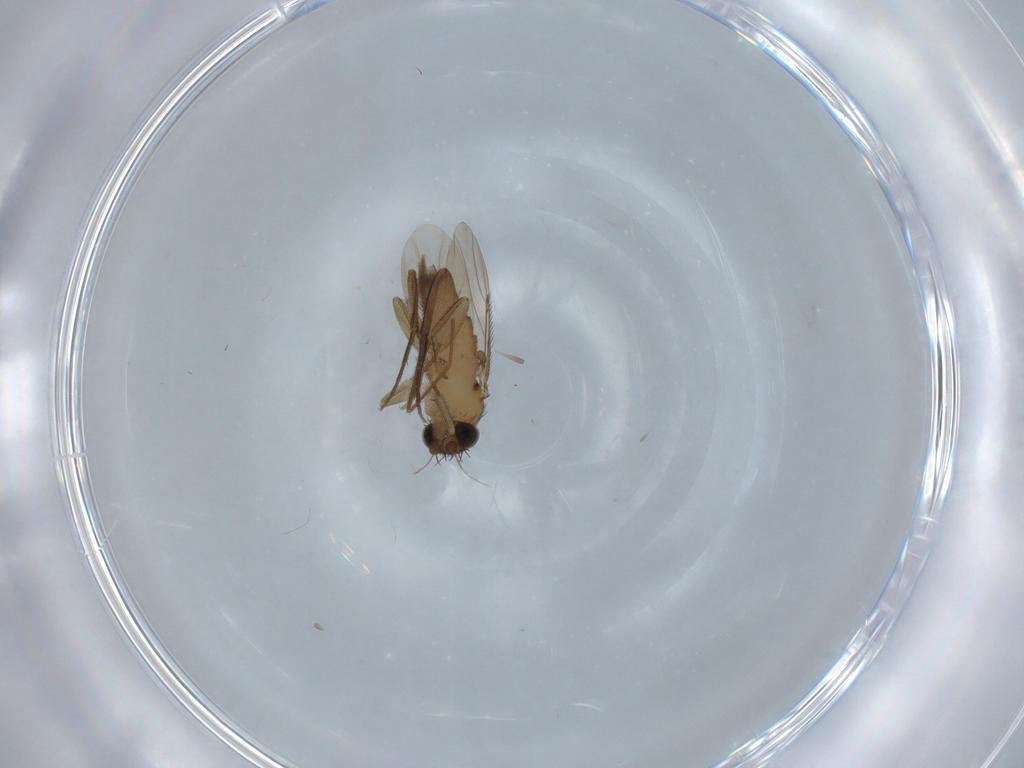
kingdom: Animalia
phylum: Arthropoda
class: Insecta
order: Diptera
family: Phoridae
